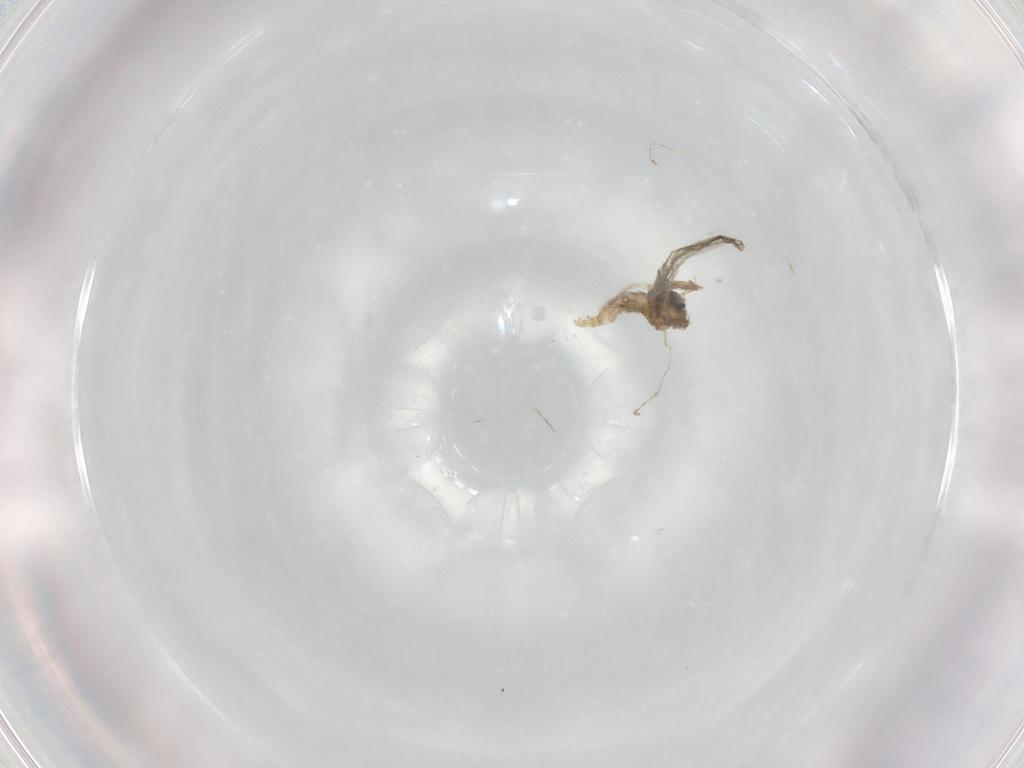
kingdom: Animalia
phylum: Arthropoda
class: Insecta
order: Diptera
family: Cecidomyiidae
